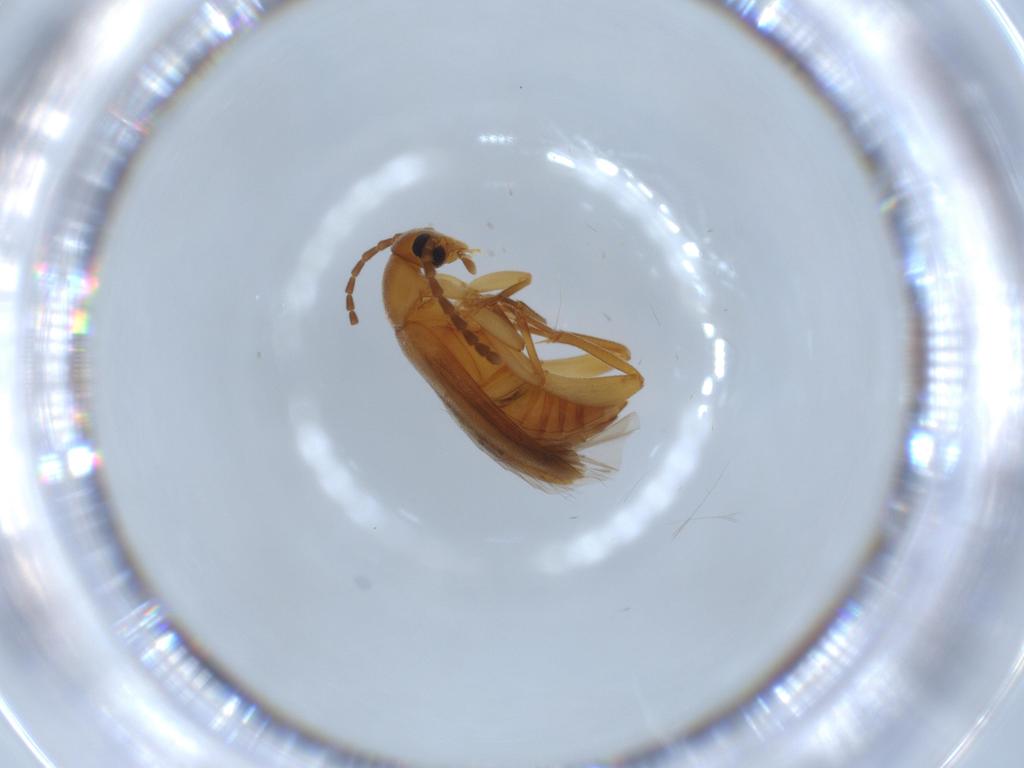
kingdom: Animalia
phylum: Arthropoda
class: Insecta
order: Coleoptera
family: Scraptiidae
